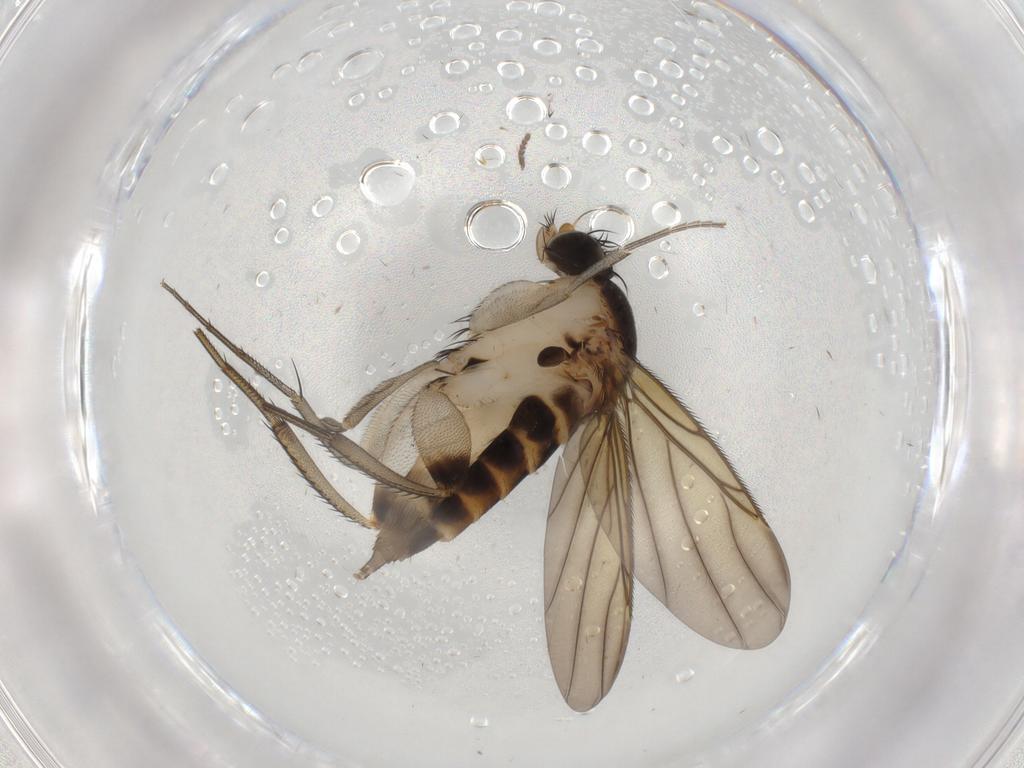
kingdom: Animalia
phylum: Arthropoda
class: Insecta
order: Diptera
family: Phoridae
